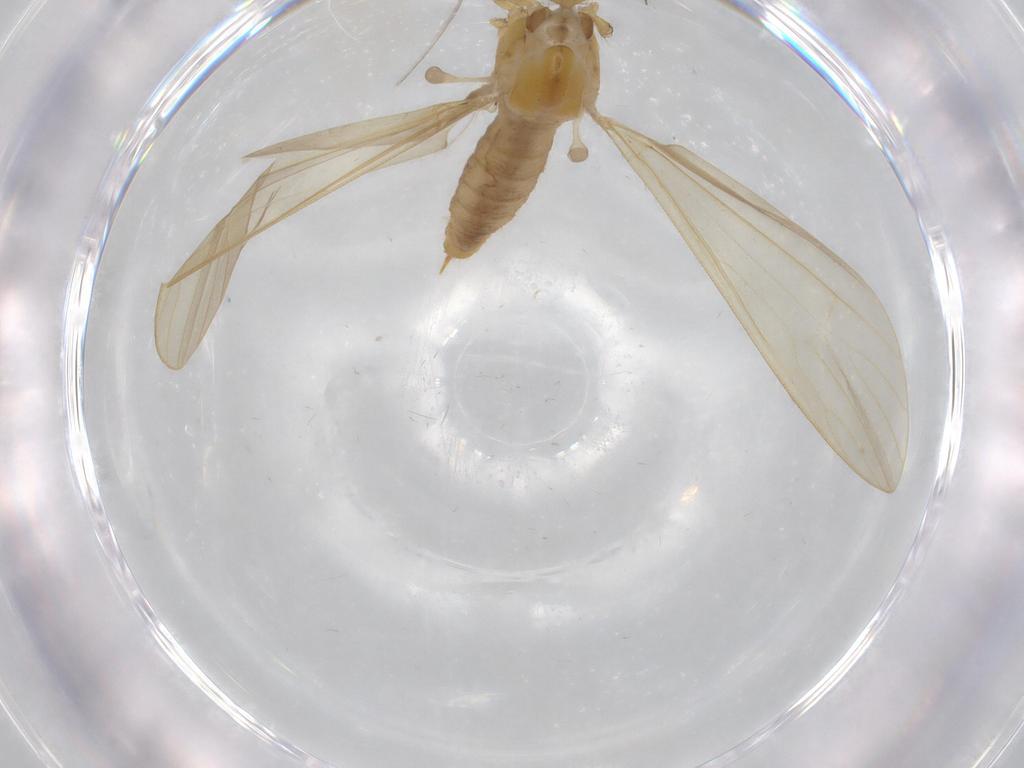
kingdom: Animalia
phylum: Arthropoda
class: Insecta
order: Diptera
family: Cecidomyiidae
